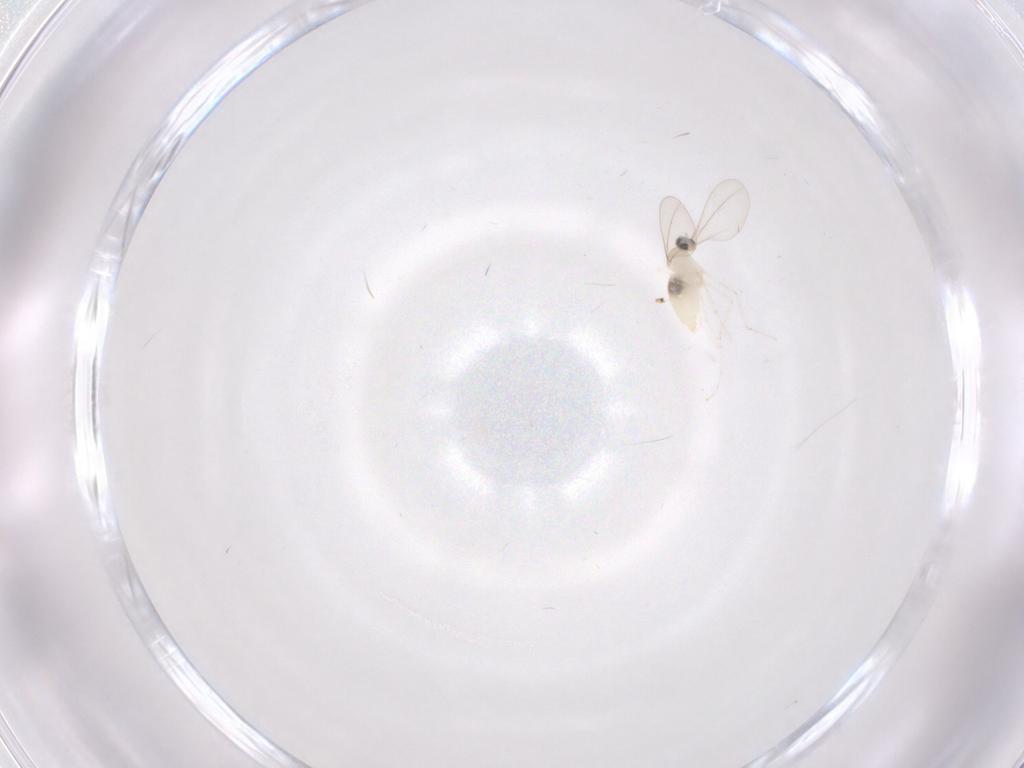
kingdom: Animalia
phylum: Arthropoda
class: Insecta
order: Diptera
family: Cecidomyiidae
